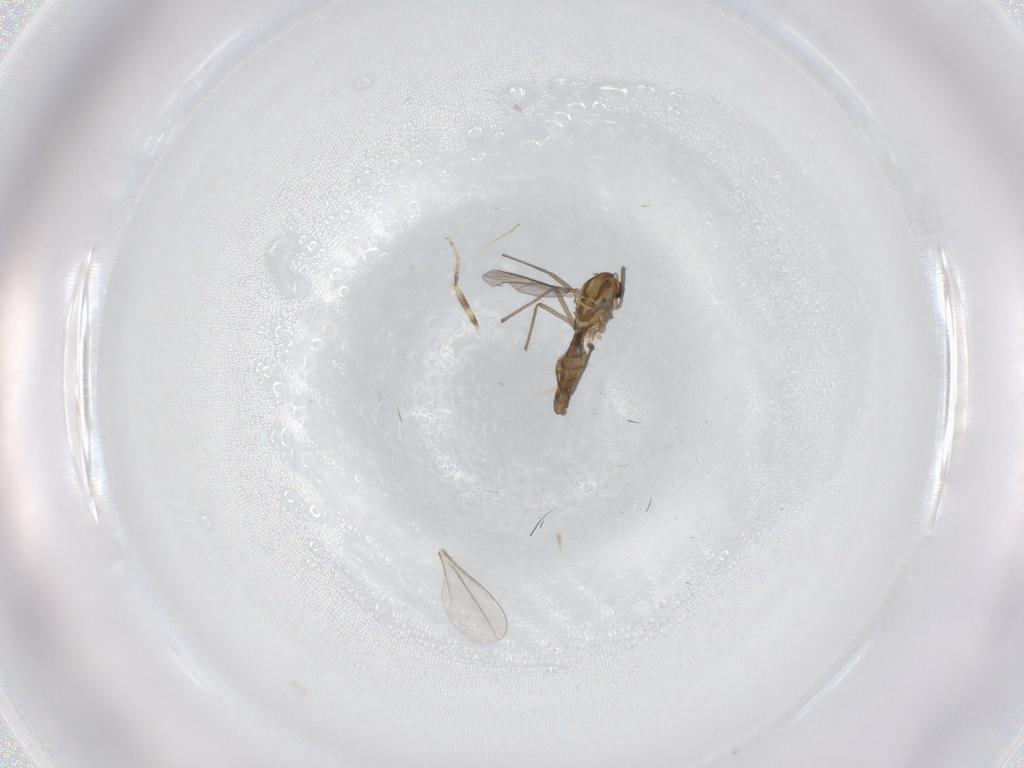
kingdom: Animalia
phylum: Arthropoda
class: Insecta
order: Diptera
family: Ceratopogonidae
